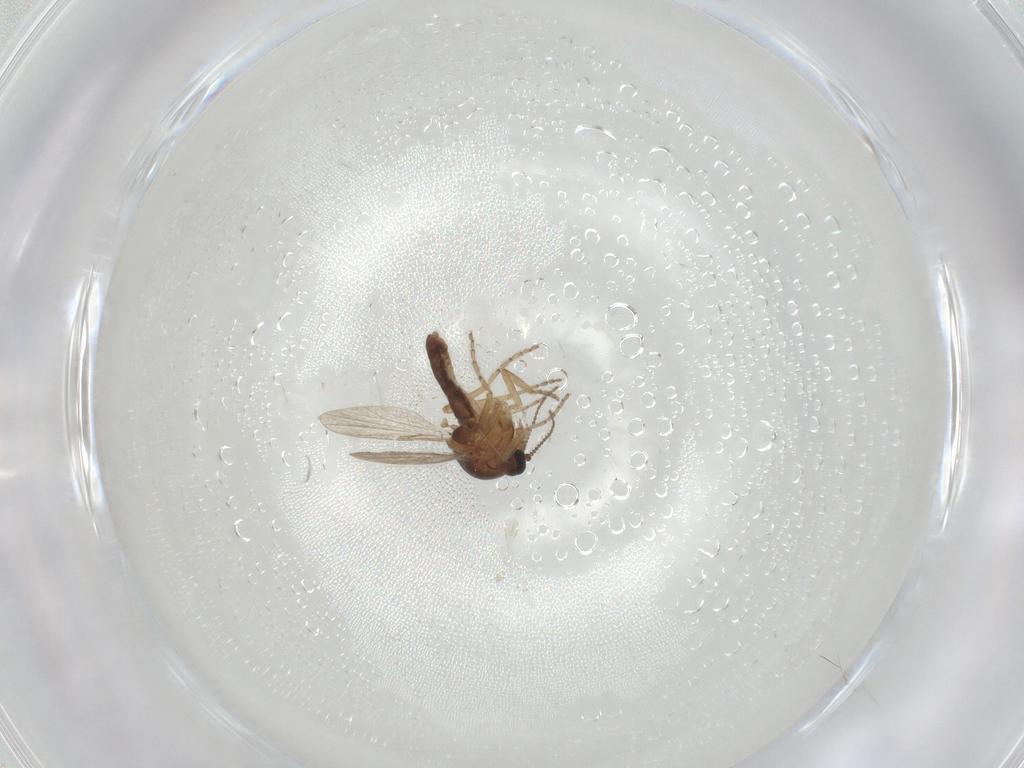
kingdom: Animalia
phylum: Arthropoda
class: Insecta
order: Diptera
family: Ceratopogonidae
